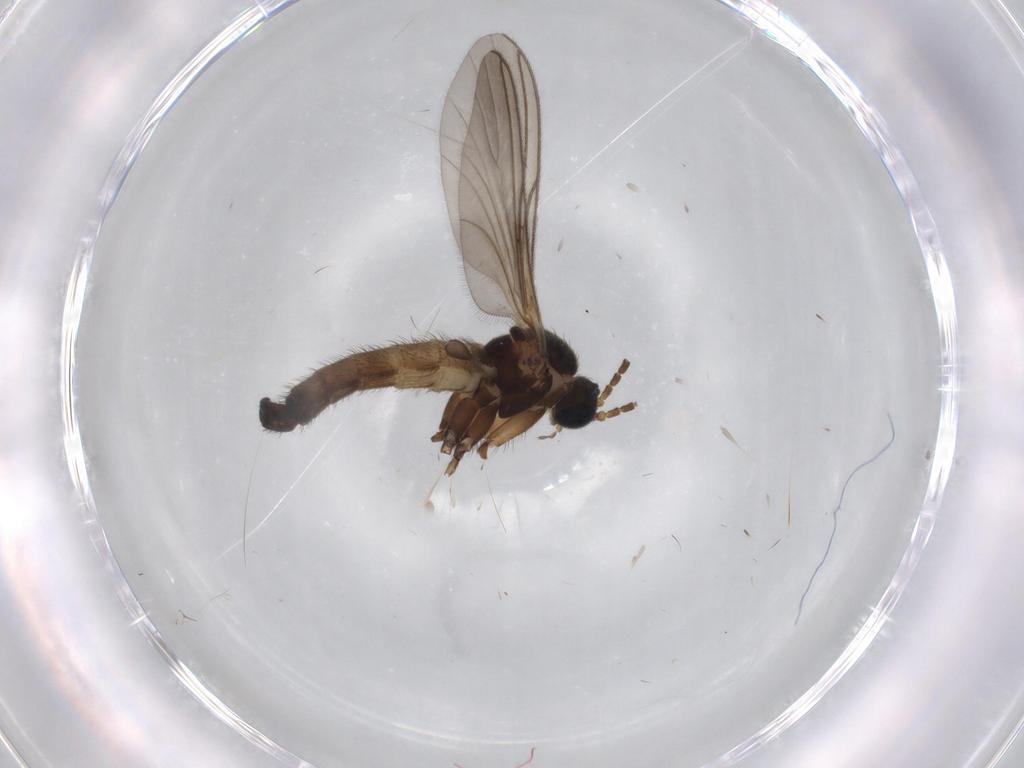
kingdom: Animalia
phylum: Arthropoda
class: Insecta
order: Diptera
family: Sciaridae
